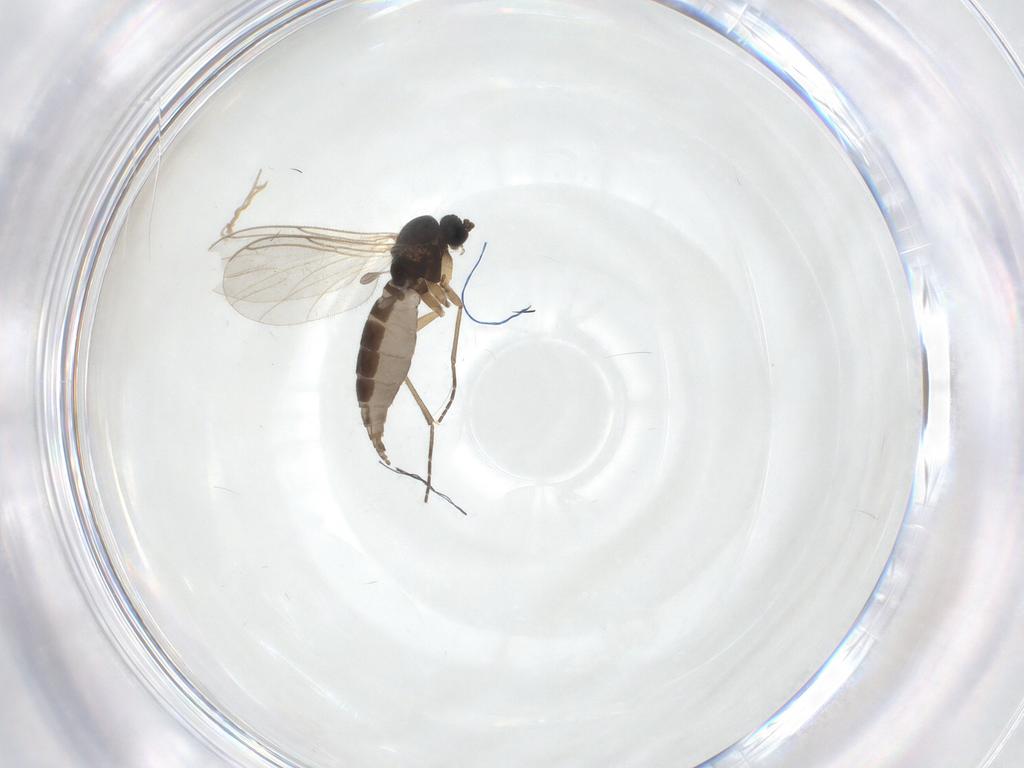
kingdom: Animalia
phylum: Arthropoda
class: Insecta
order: Diptera
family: Sciaridae
